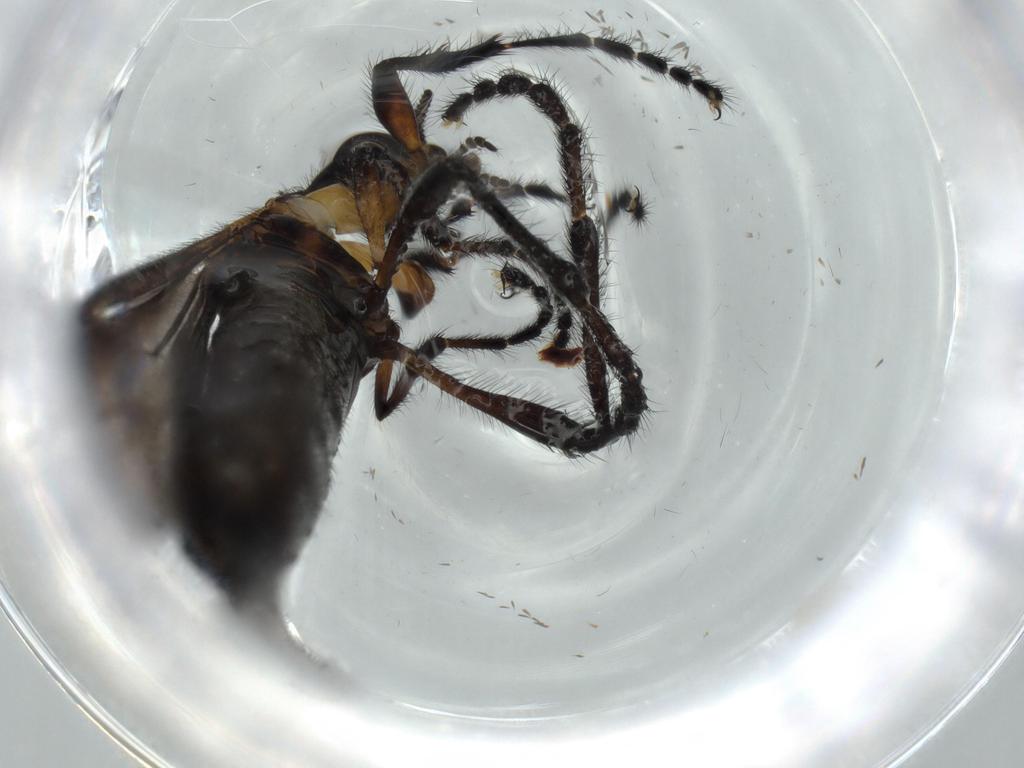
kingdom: Animalia
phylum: Arthropoda
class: Insecta
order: Diptera
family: Bibionidae
